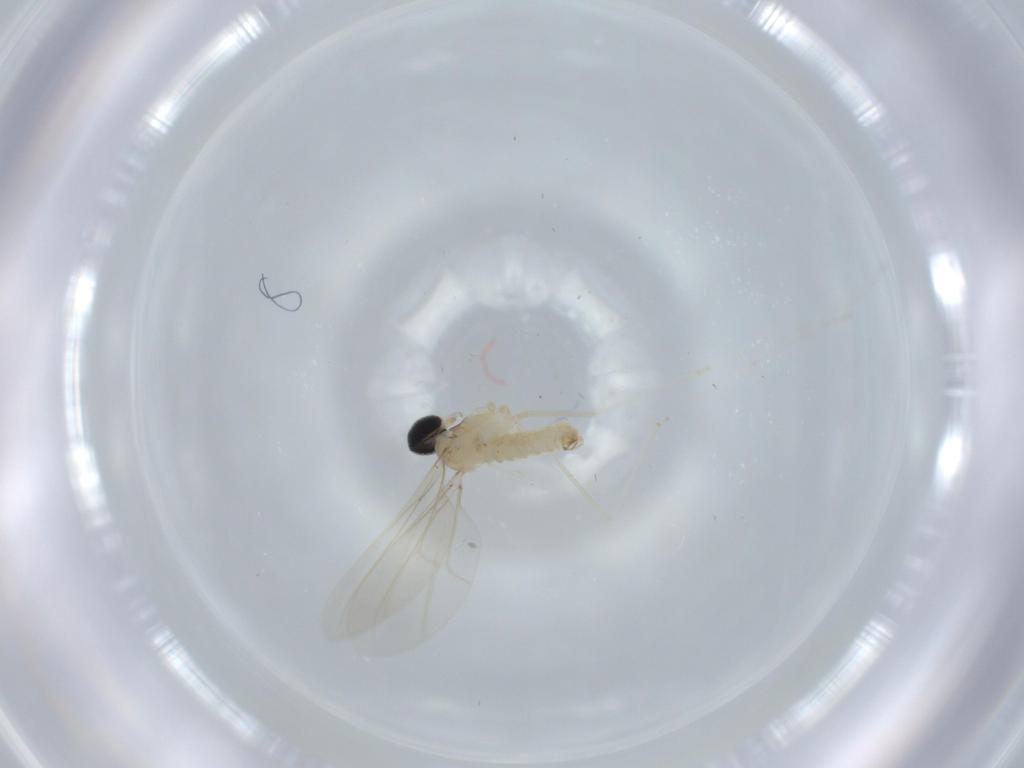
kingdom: Animalia
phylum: Arthropoda
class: Insecta
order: Diptera
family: Cecidomyiidae
